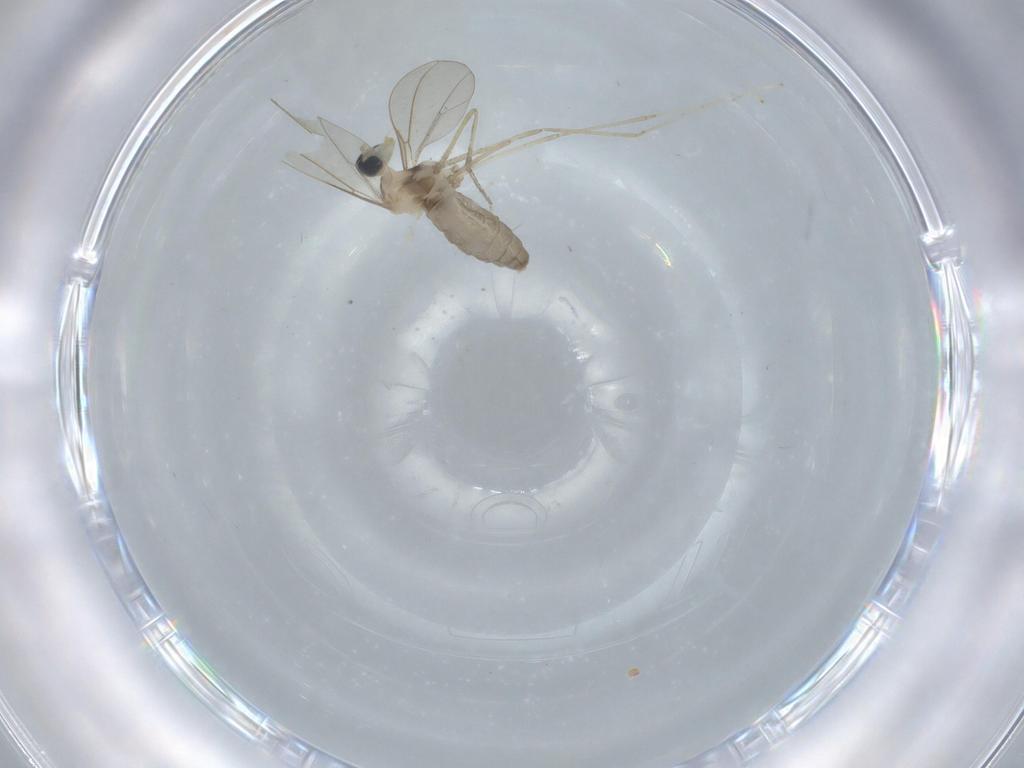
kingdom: Animalia
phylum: Arthropoda
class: Insecta
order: Diptera
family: Cecidomyiidae
